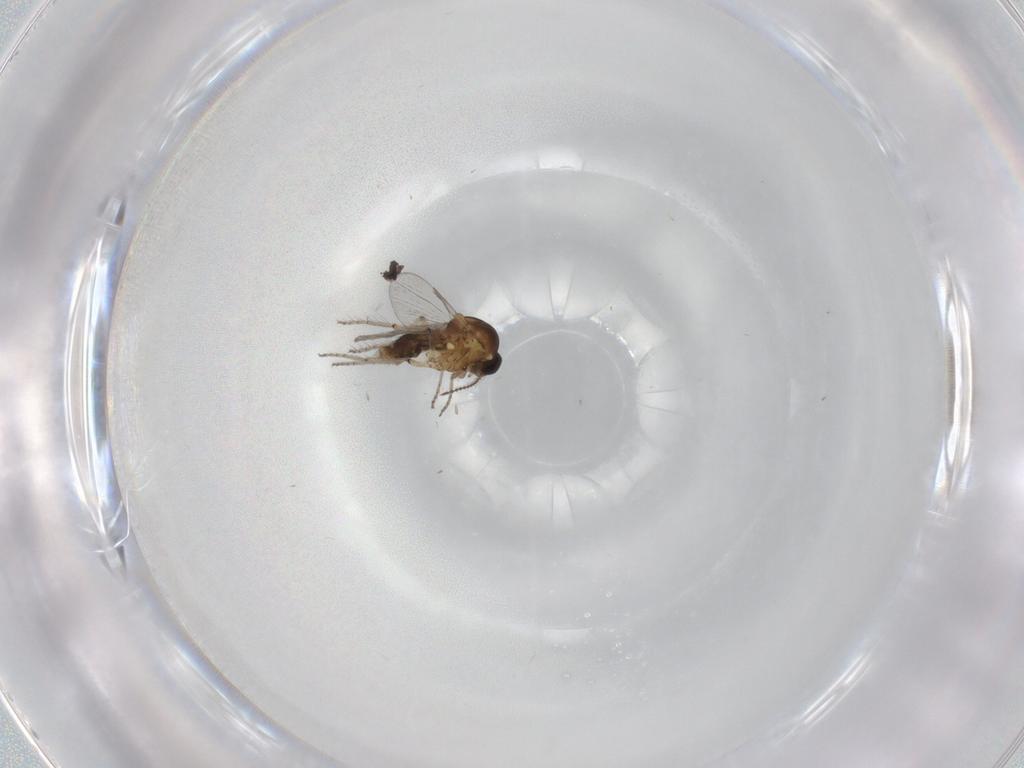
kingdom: Animalia
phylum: Arthropoda
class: Insecta
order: Diptera
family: Ceratopogonidae
